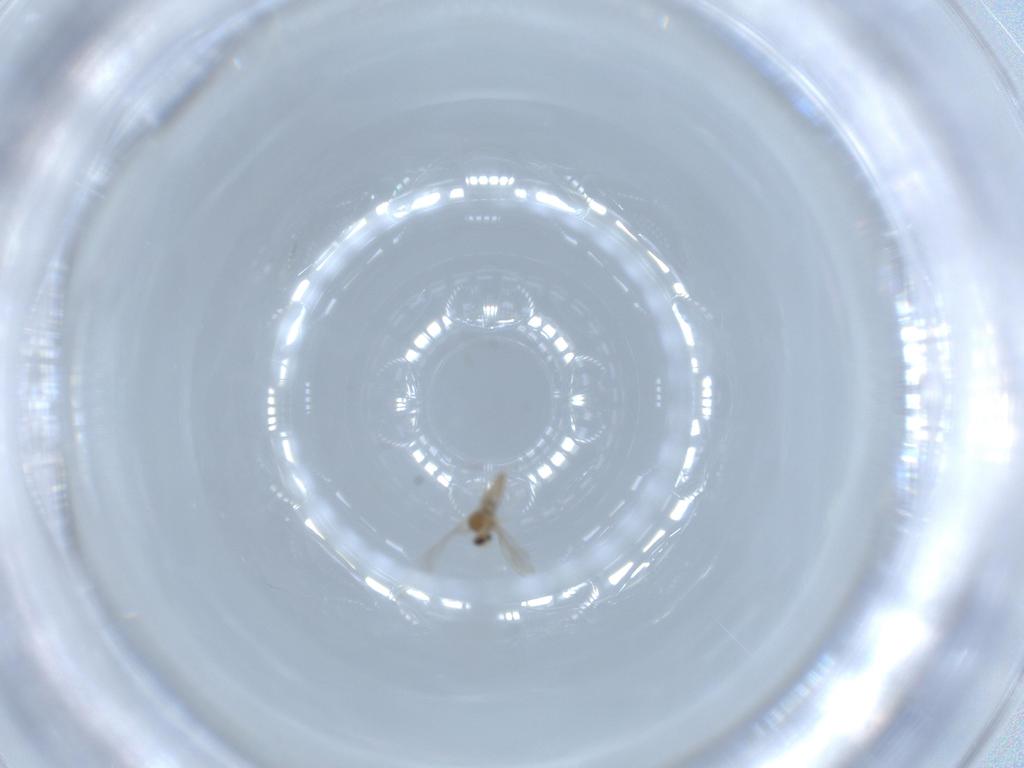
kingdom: Animalia
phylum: Arthropoda
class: Insecta
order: Diptera
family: Cecidomyiidae
